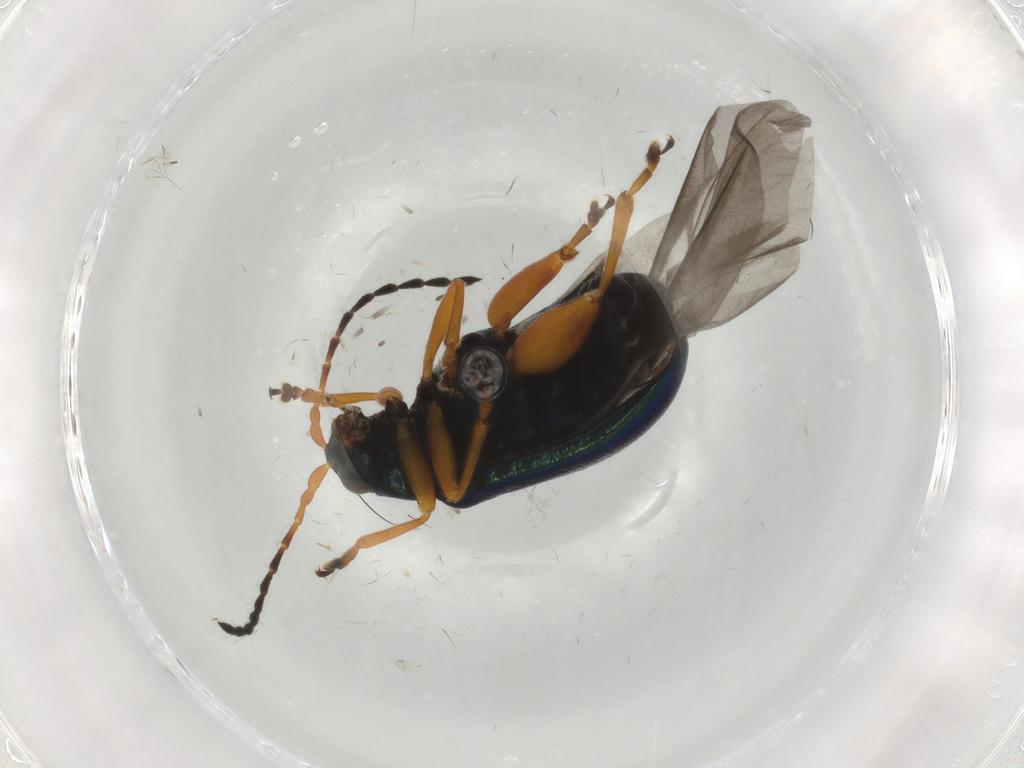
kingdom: Animalia
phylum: Arthropoda
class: Insecta
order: Coleoptera
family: Chrysomelidae
